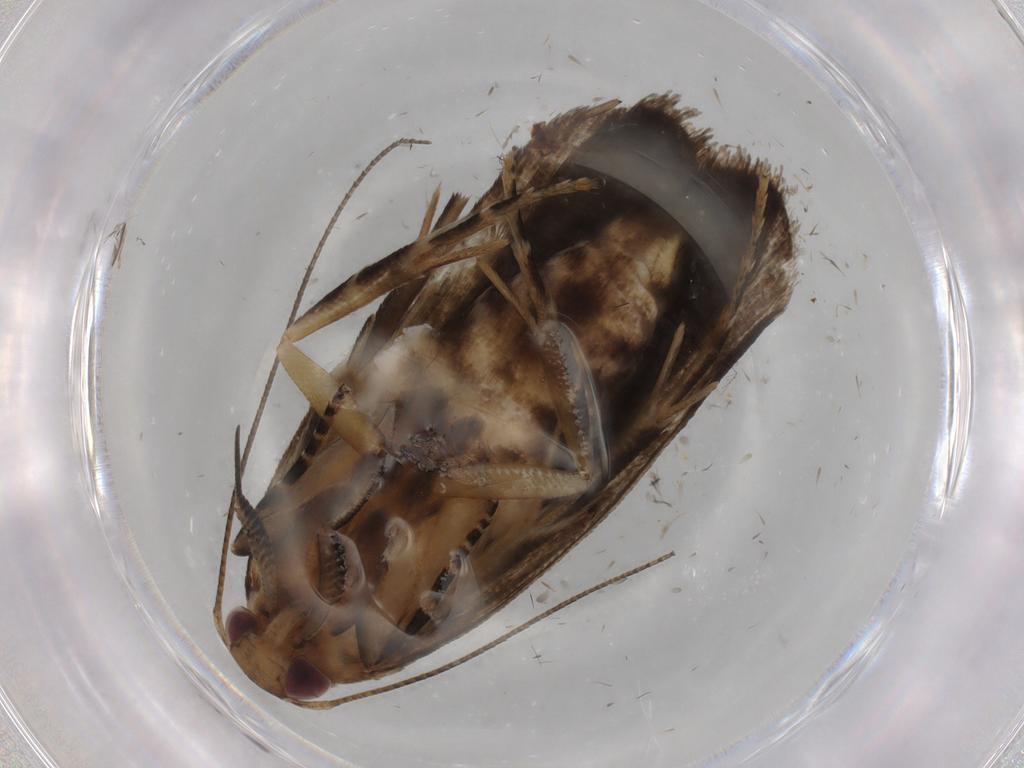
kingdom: Animalia
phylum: Arthropoda
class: Insecta
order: Lepidoptera
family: Gelechiidae
